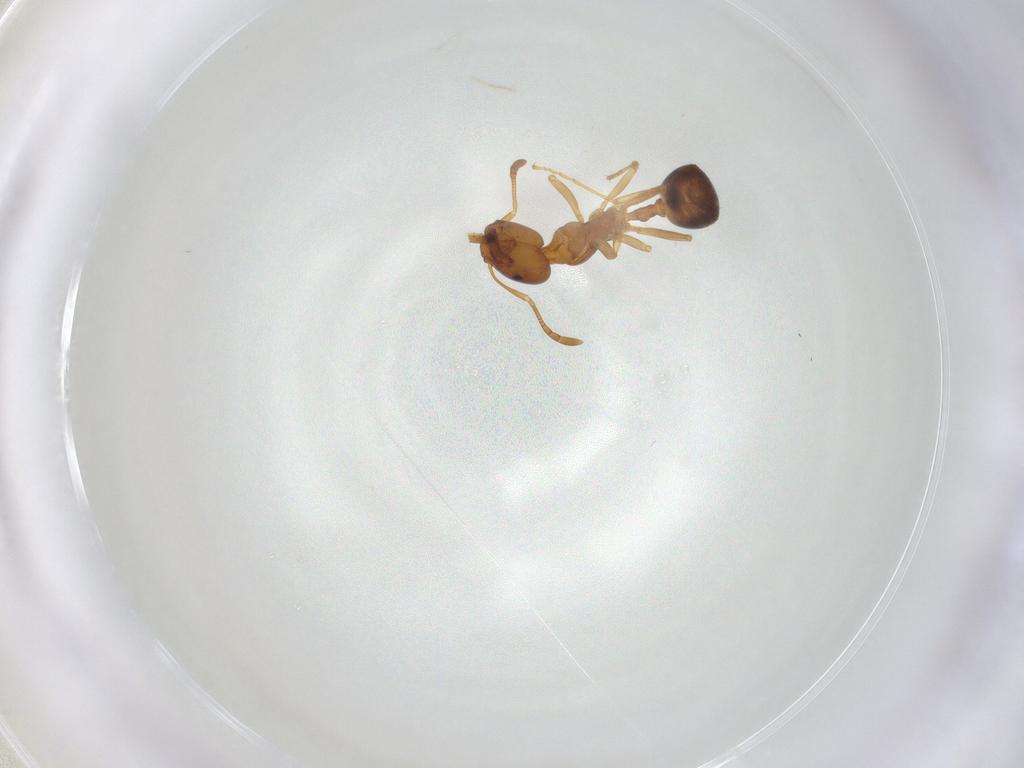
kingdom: Animalia
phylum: Arthropoda
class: Insecta
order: Hymenoptera
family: Formicidae
